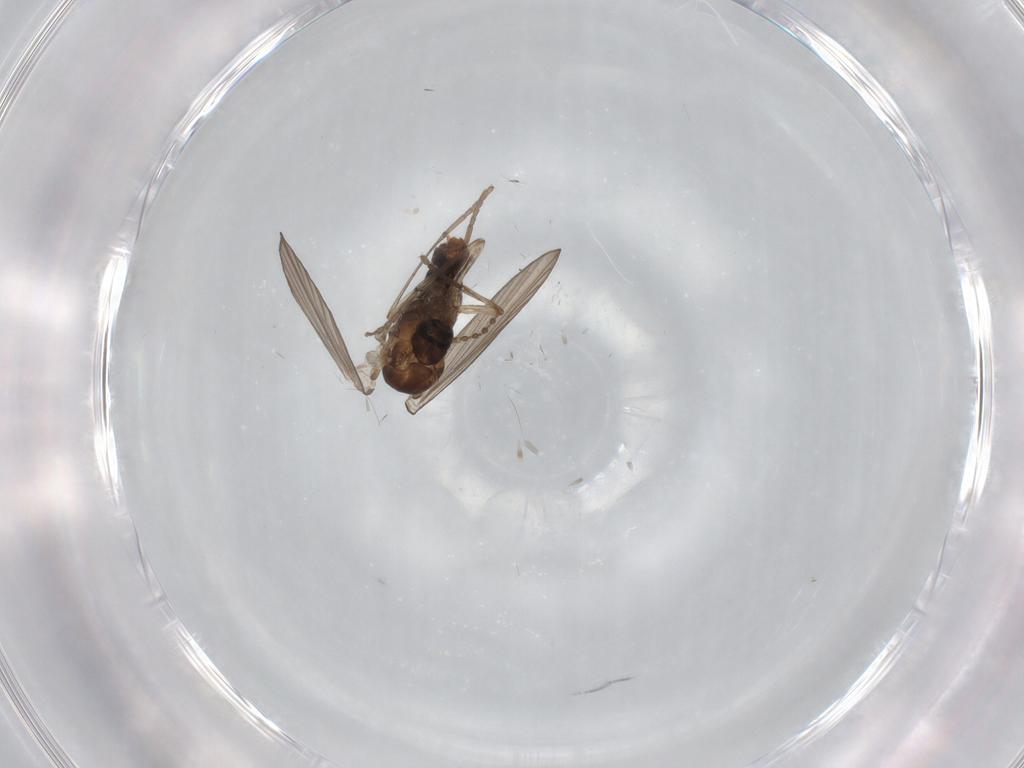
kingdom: Animalia
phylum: Arthropoda
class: Insecta
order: Diptera
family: Psychodidae
